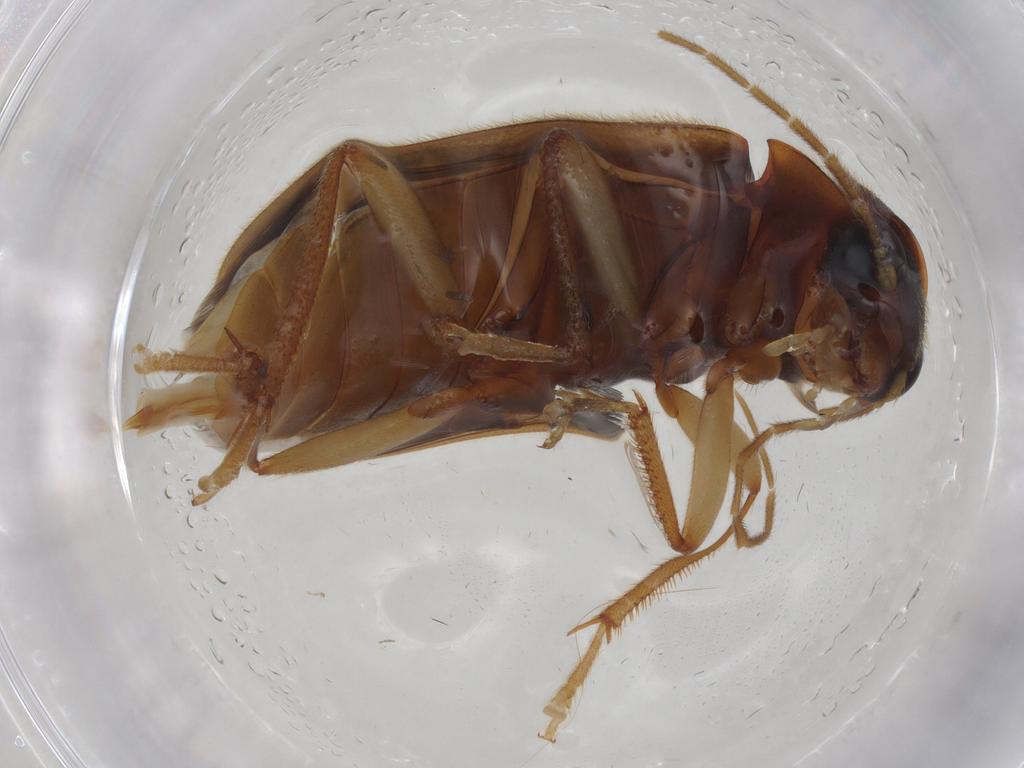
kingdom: Animalia
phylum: Arthropoda
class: Insecta
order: Coleoptera
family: Ptilodactylidae
